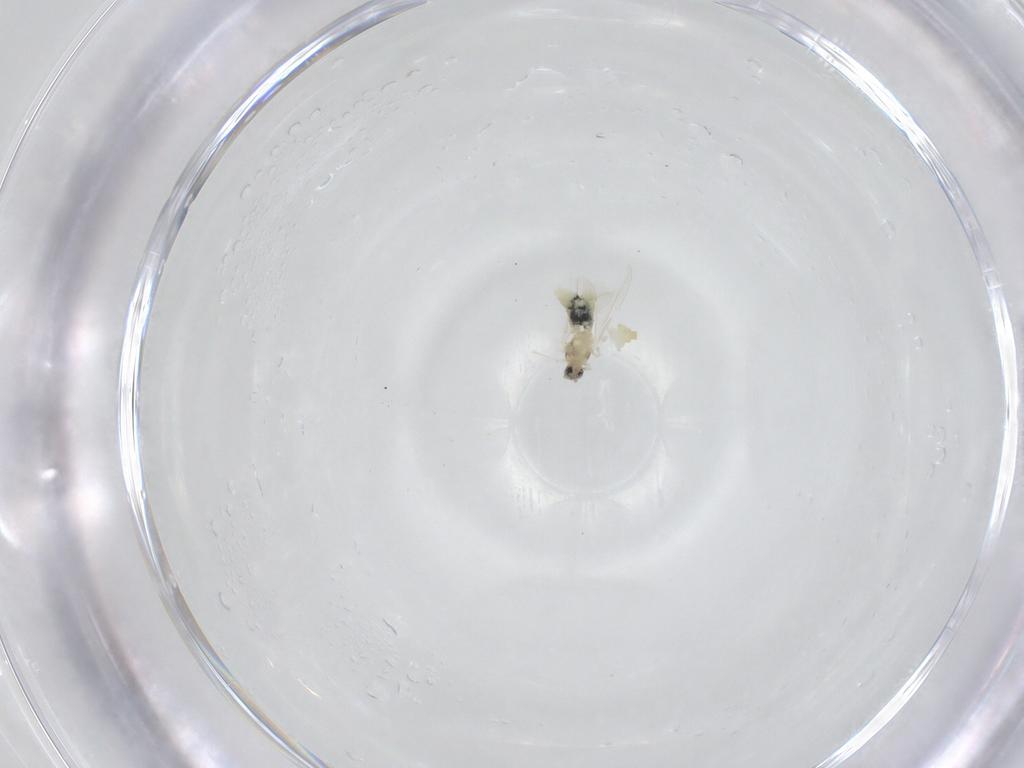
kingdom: Animalia
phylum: Arthropoda
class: Insecta
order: Diptera
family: Cecidomyiidae
